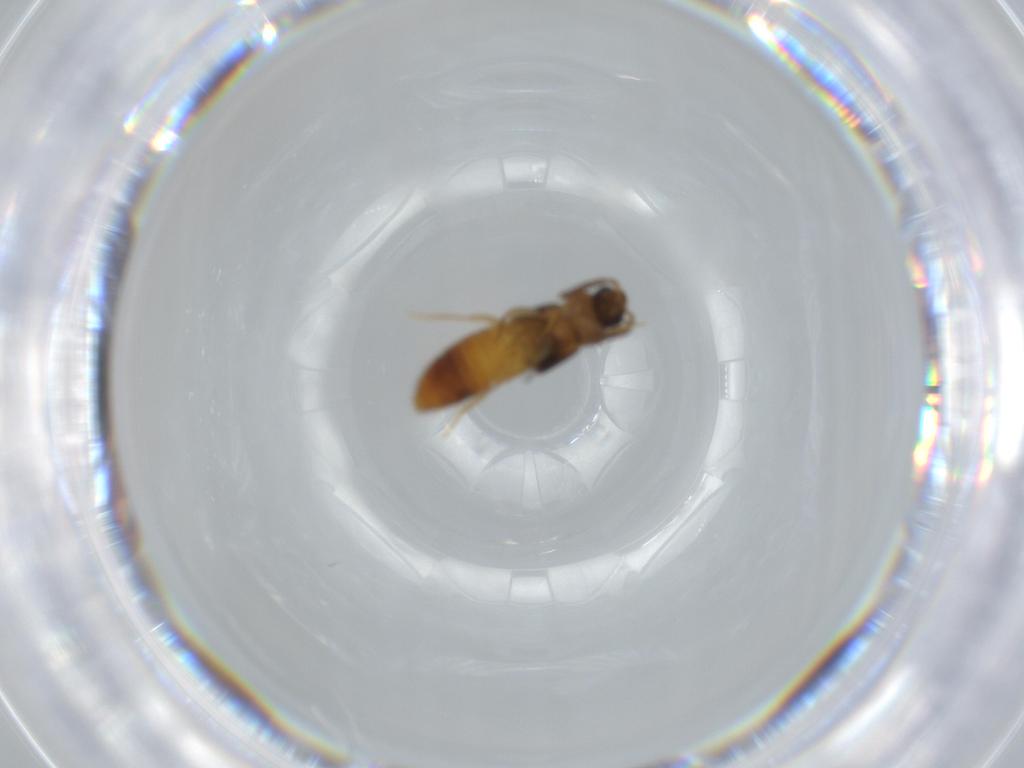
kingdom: Animalia
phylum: Arthropoda
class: Insecta
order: Coleoptera
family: Staphylinidae
